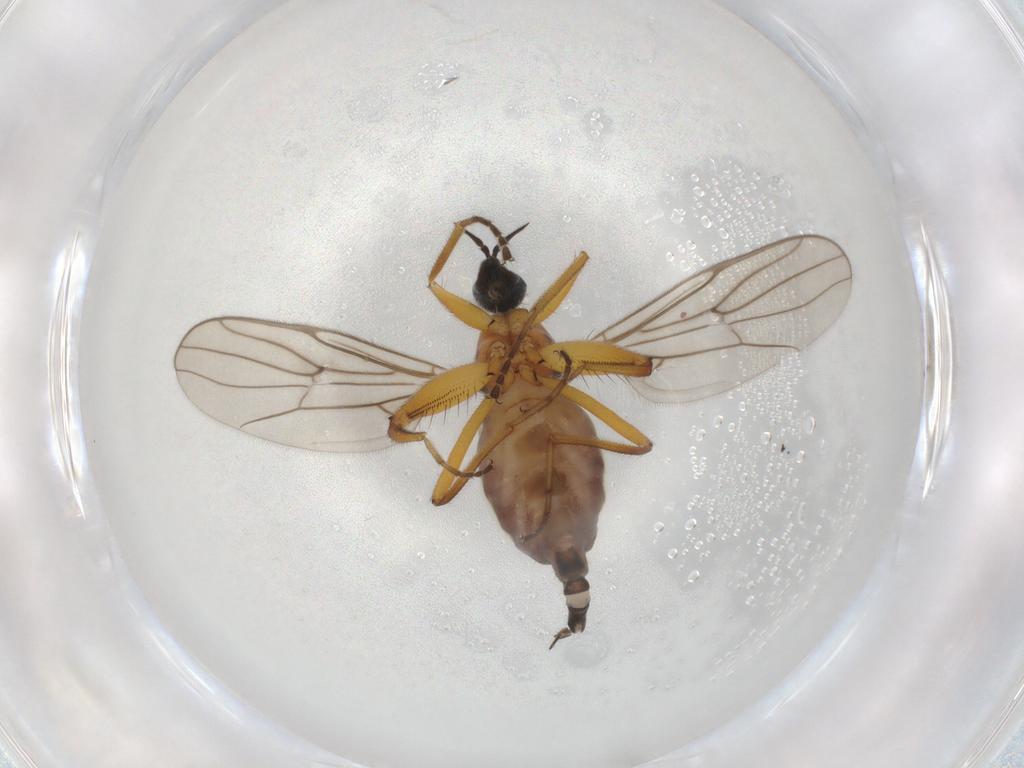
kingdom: Animalia
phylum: Arthropoda
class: Insecta
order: Diptera
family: Hybotidae
